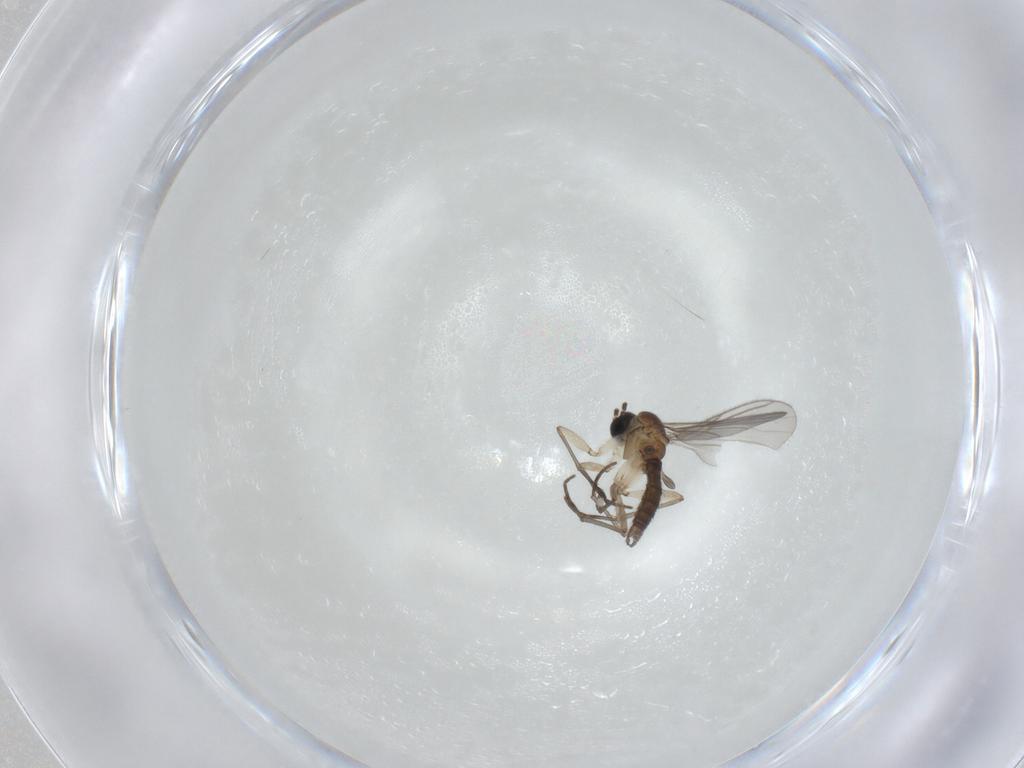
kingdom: Animalia
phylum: Arthropoda
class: Insecta
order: Diptera
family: Sciaridae
